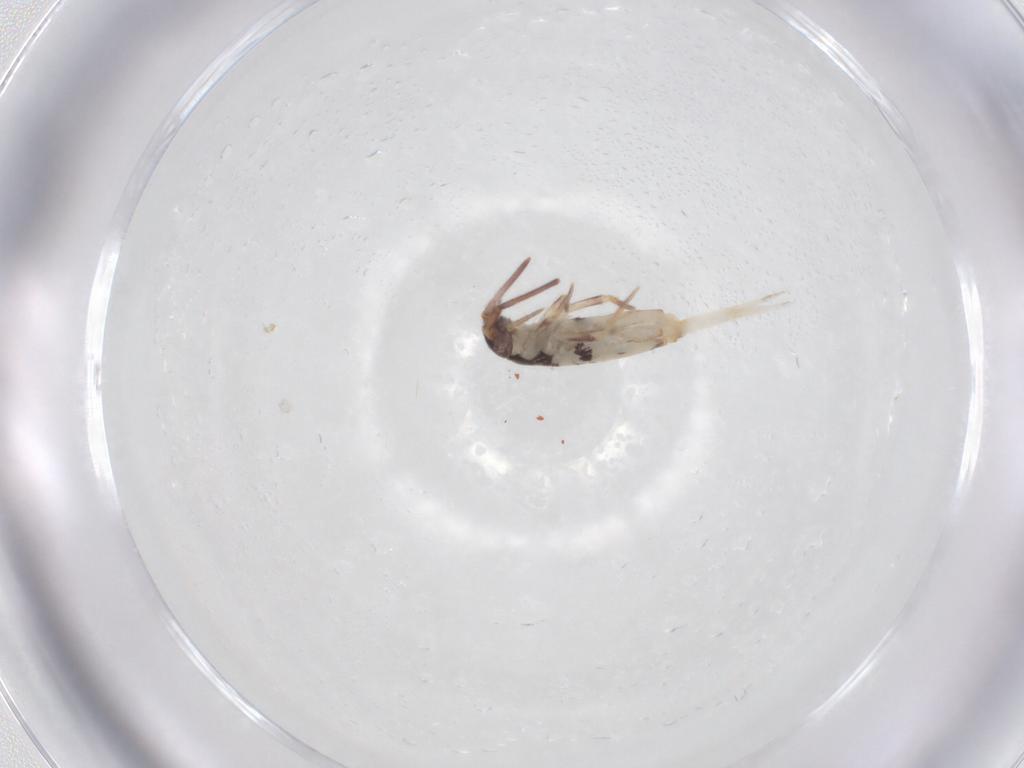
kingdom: Animalia
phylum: Arthropoda
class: Collembola
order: Entomobryomorpha
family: Entomobryidae
